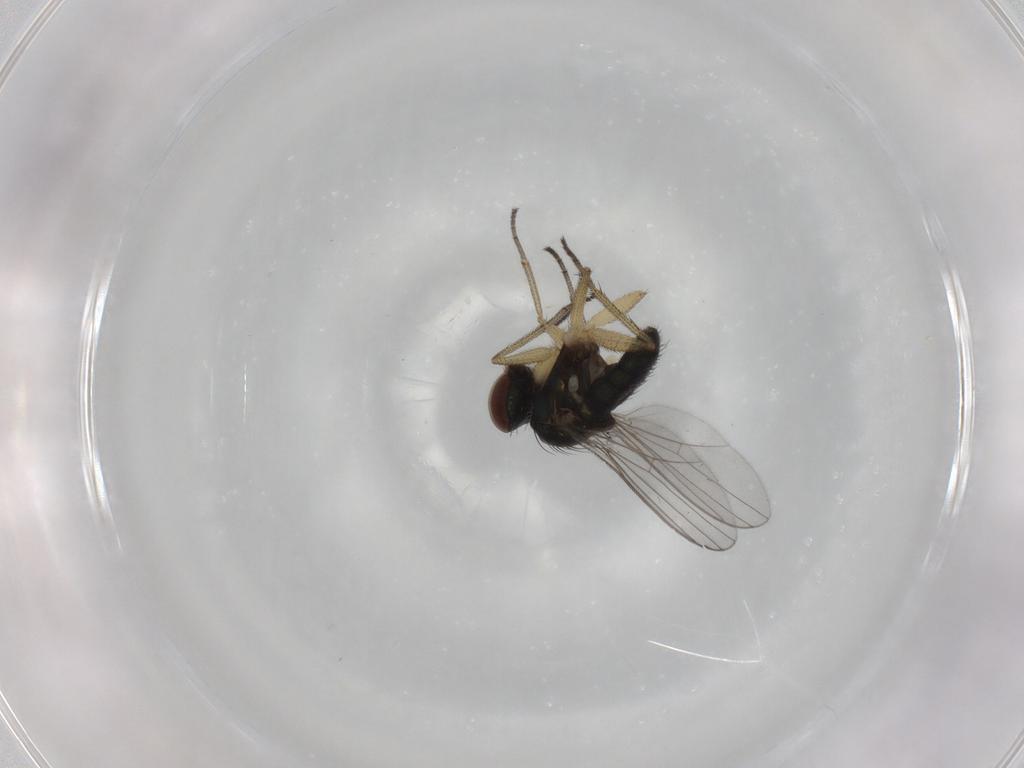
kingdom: Animalia
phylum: Arthropoda
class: Insecta
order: Diptera
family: Dolichopodidae
